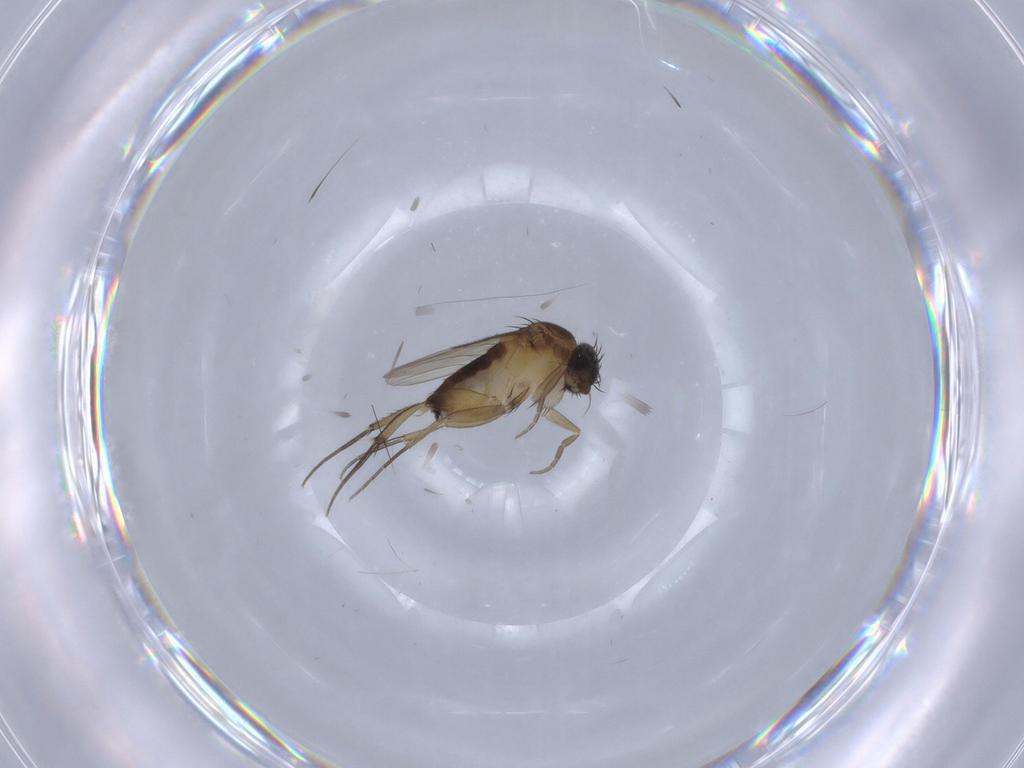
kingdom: Animalia
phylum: Arthropoda
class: Insecta
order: Diptera
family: Phoridae
